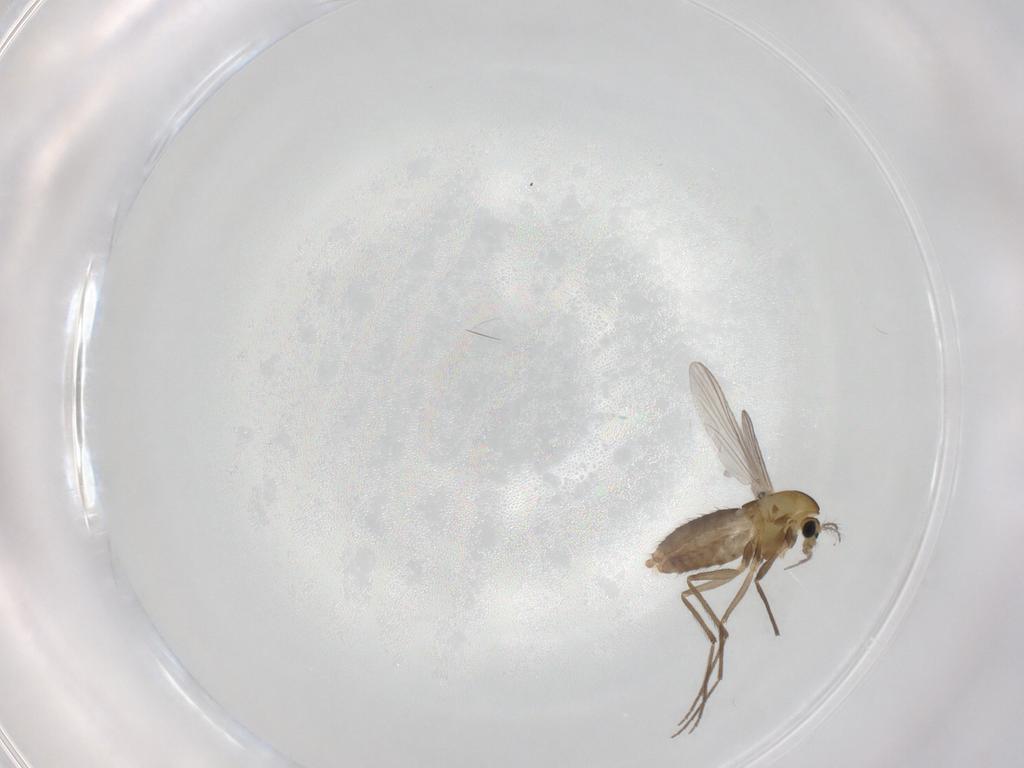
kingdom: Animalia
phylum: Arthropoda
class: Insecta
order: Diptera
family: Chironomidae
